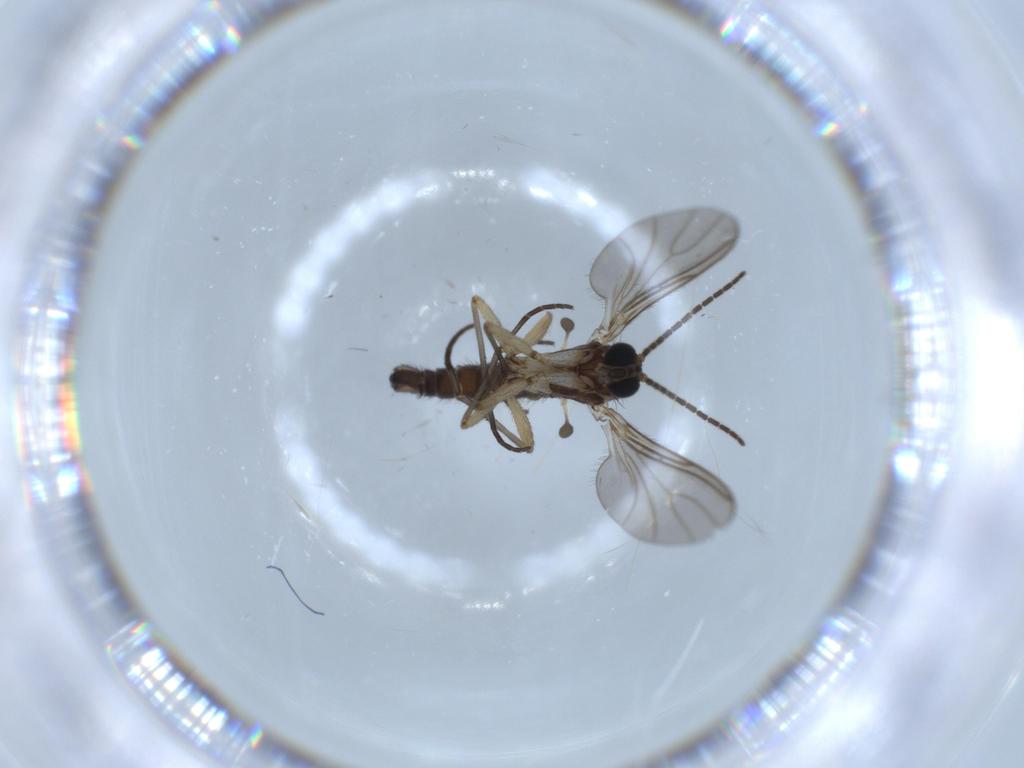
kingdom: Animalia
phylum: Arthropoda
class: Insecta
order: Diptera
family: Sciaridae
